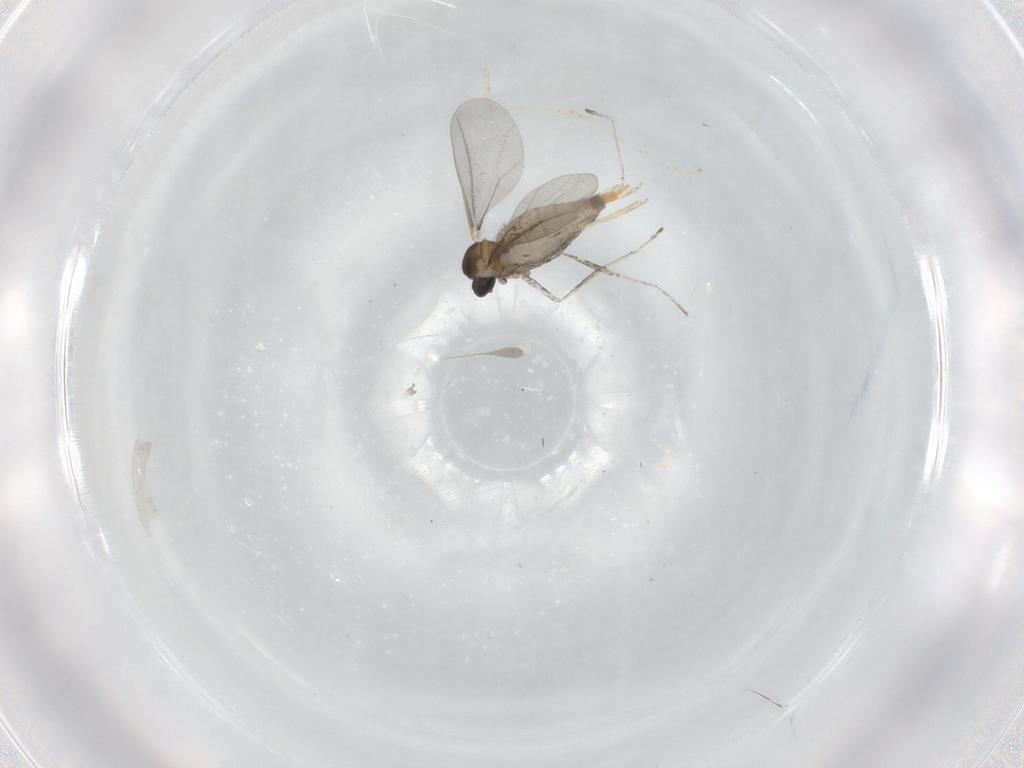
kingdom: Animalia
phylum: Arthropoda
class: Insecta
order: Diptera
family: Cecidomyiidae
